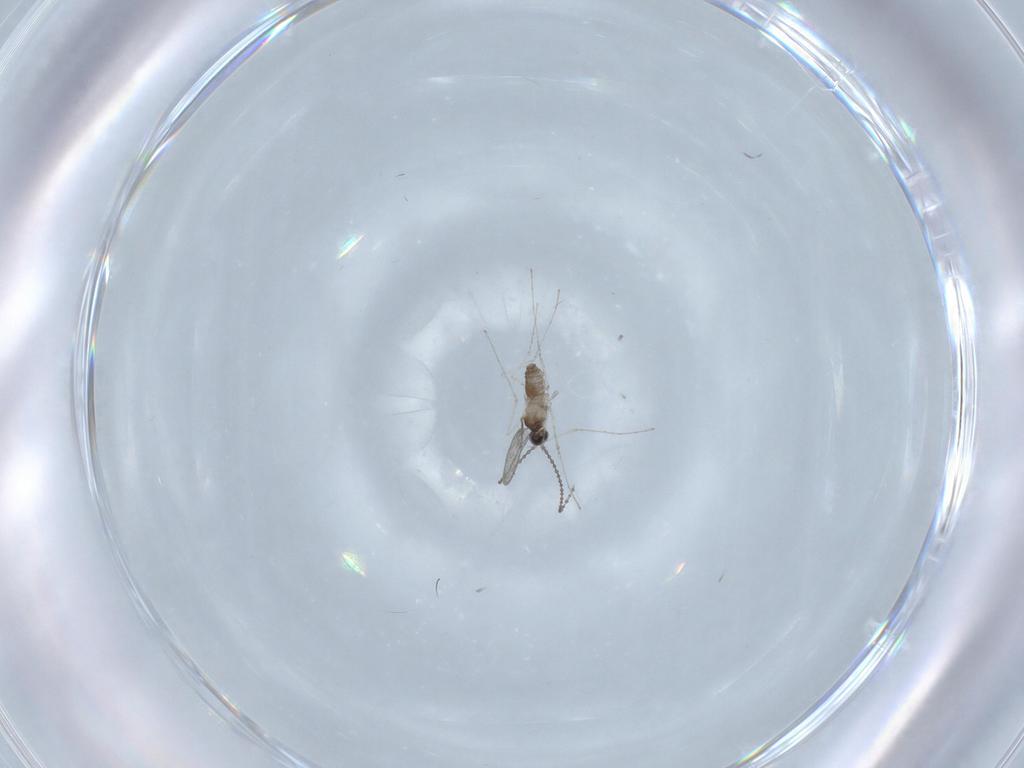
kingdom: Animalia
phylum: Arthropoda
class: Insecta
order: Diptera
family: Cecidomyiidae
